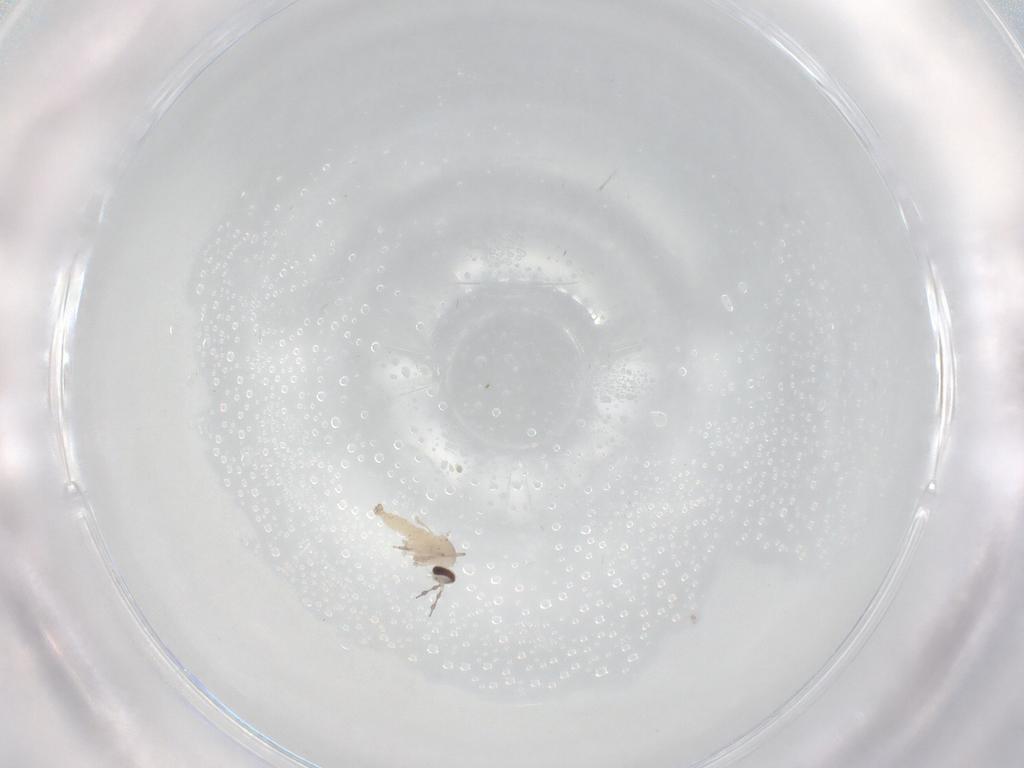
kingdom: Animalia
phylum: Arthropoda
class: Insecta
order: Diptera
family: Cecidomyiidae
